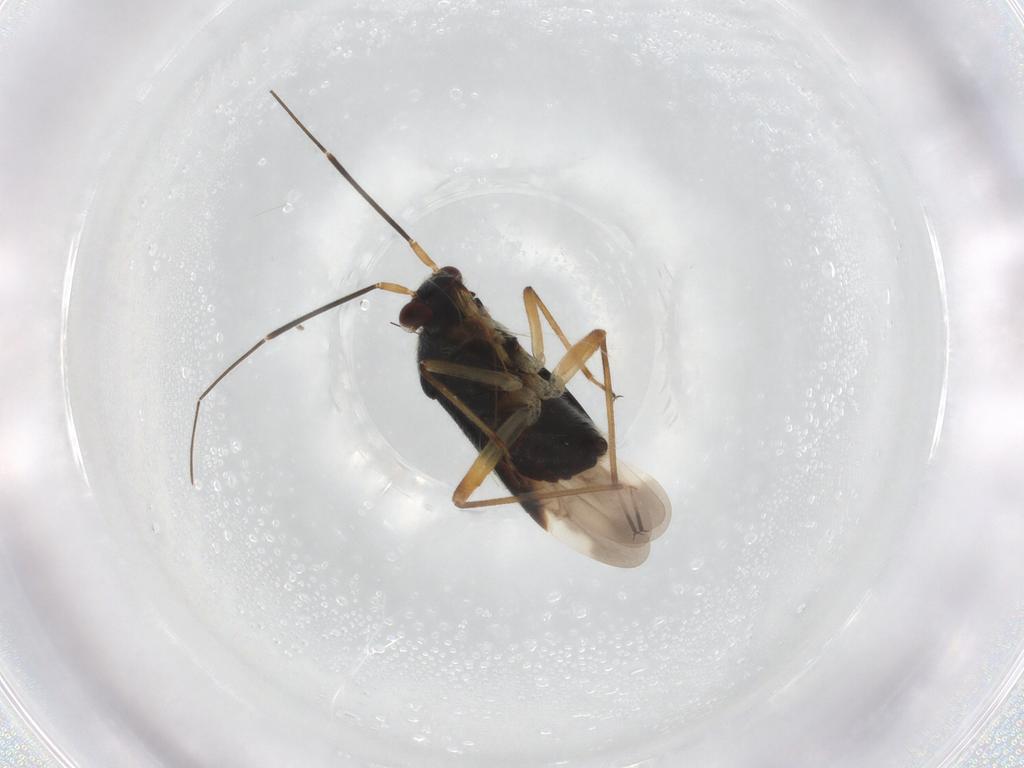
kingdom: Animalia
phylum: Arthropoda
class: Insecta
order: Hemiptera
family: Miridae
